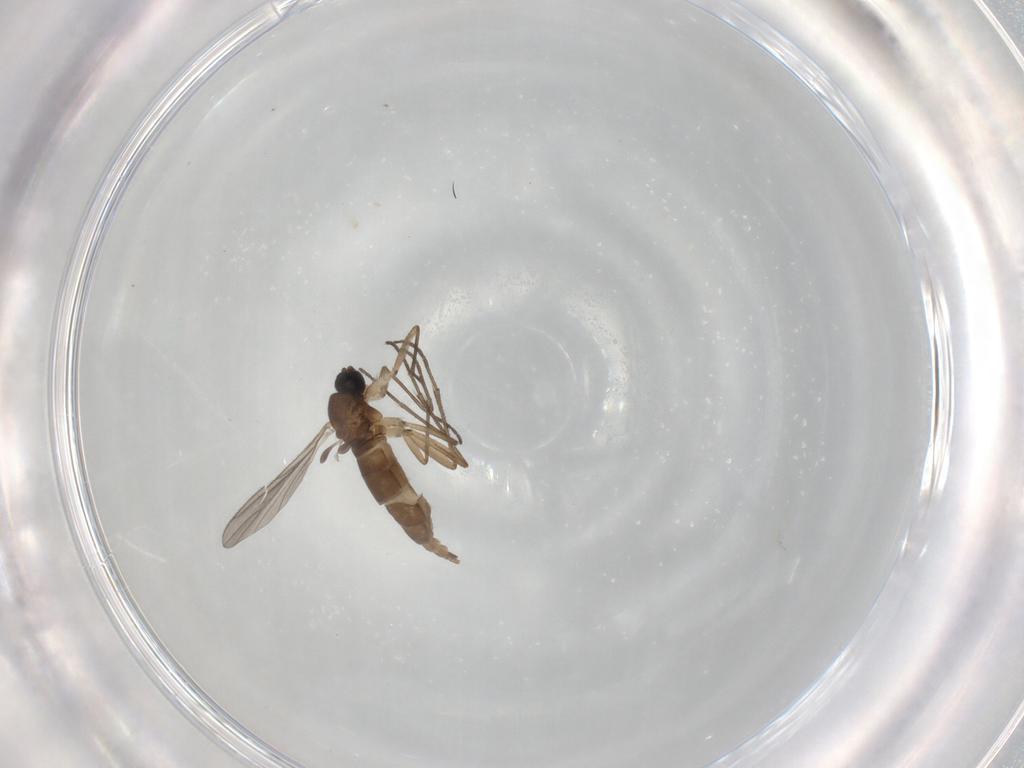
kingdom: Animalia
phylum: Arthropoda
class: Insecta
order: Diptera
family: Sciaridae
